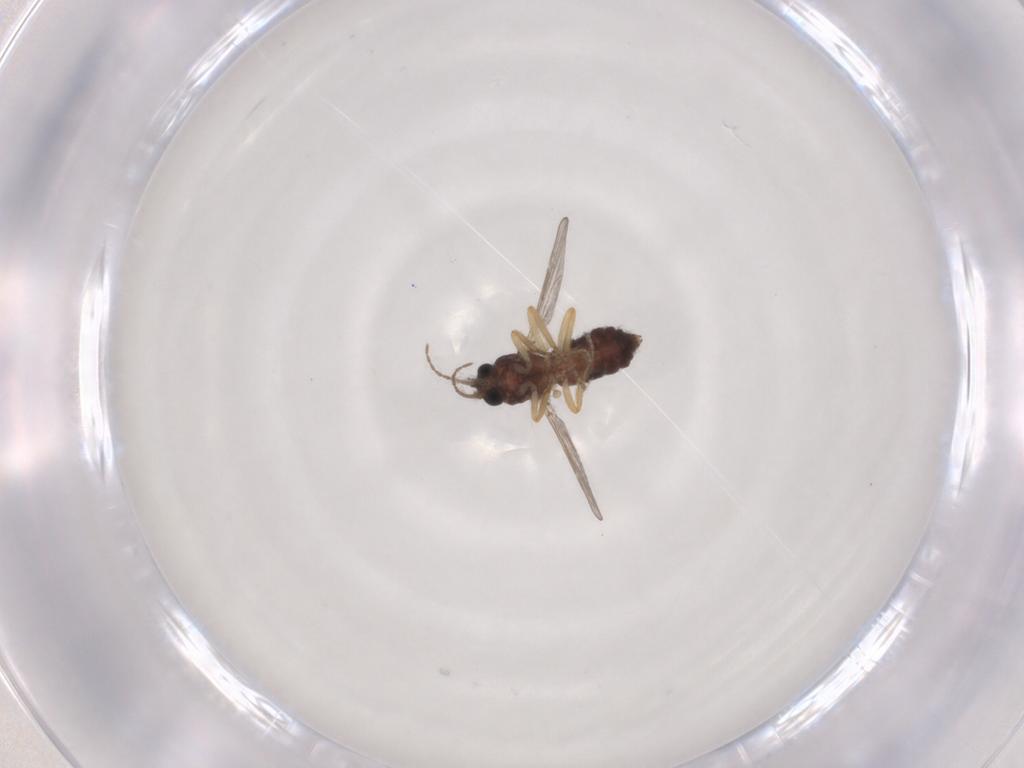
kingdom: Animalia
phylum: Arthropoda
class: Insecta
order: Diptera
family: Ceratopogonidae
